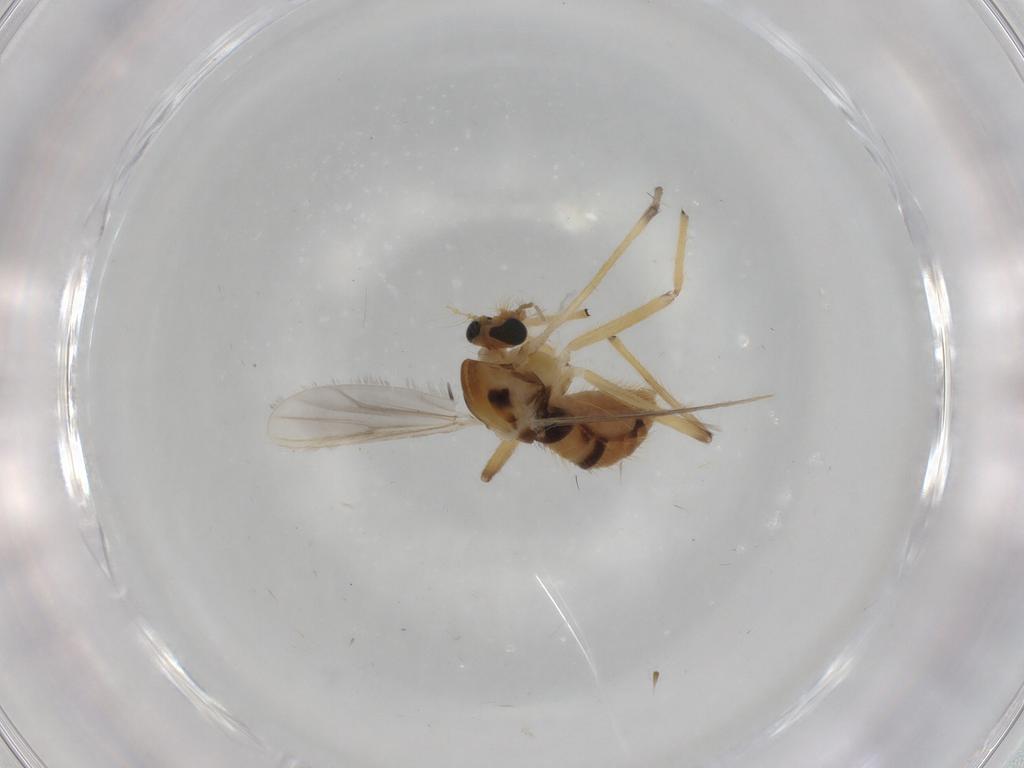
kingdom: Animalia
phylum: Arthropoda
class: Insecta
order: Diptera
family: Chironomidae
